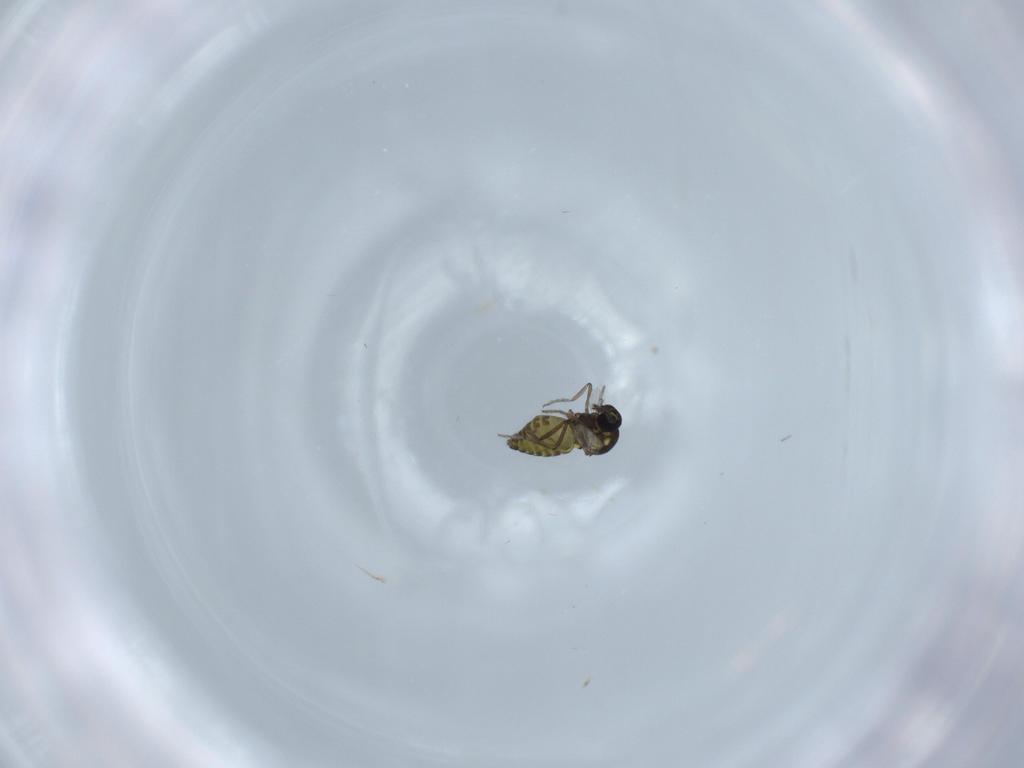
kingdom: Animalia
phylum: Arthropoda
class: Insecta
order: Diptera
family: Ceratopogonidae
